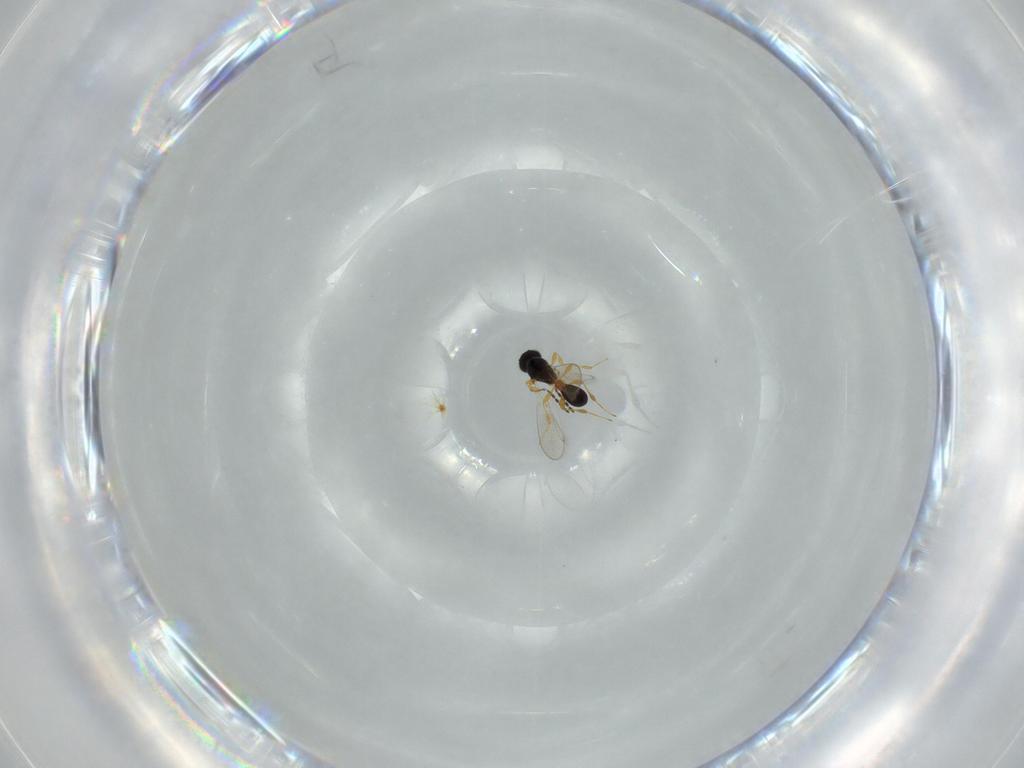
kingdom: Animalia
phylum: Arthropoda
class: Insecta
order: Hymenoptera
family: Platygastridae
